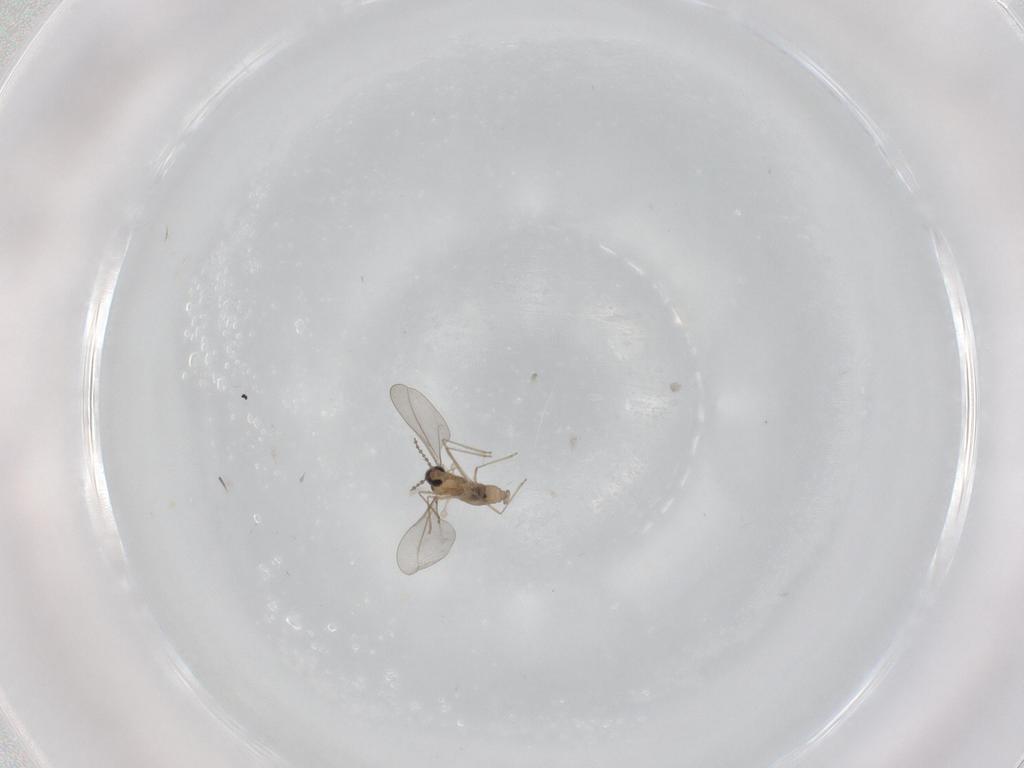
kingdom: Animalia
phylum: Arthropoda
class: Insecta
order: Diptera
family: Cecidomyiidae
